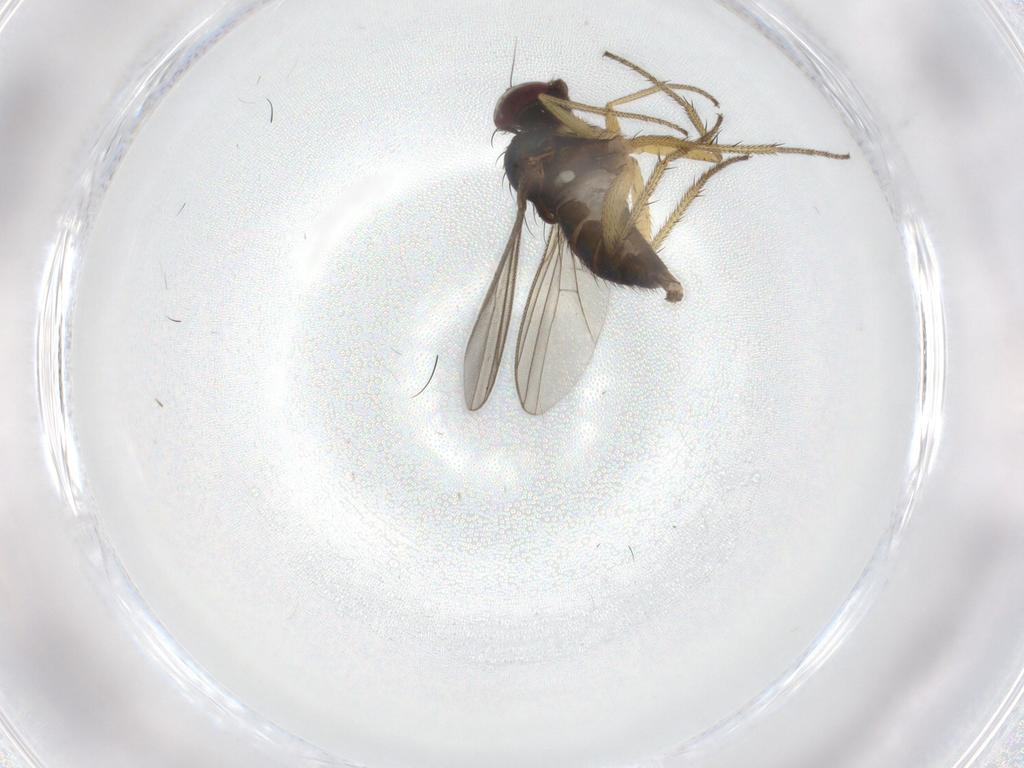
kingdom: Animalia
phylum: Arthropoda
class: Insecta
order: Diptera
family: Dolichopodidae
